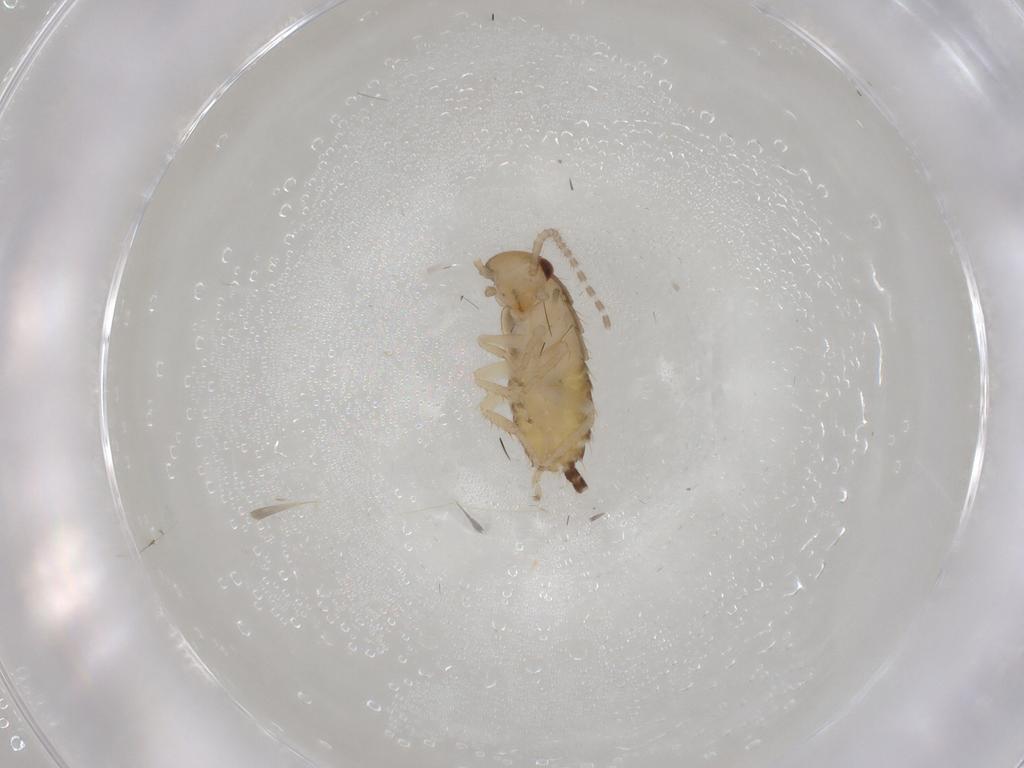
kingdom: Animalia
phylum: Arthropoda
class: Insecta
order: Blattodea
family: Ectobiidae
